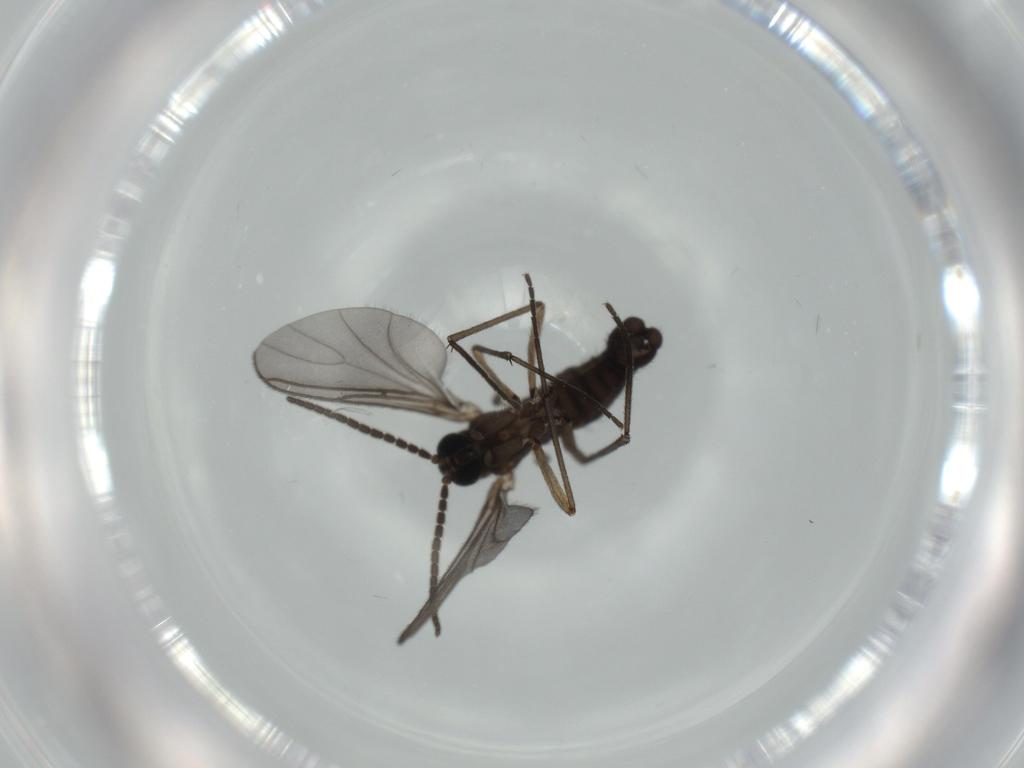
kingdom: Animalia
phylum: Arthropoda
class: Insecta
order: Diptera
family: Sciaridae
